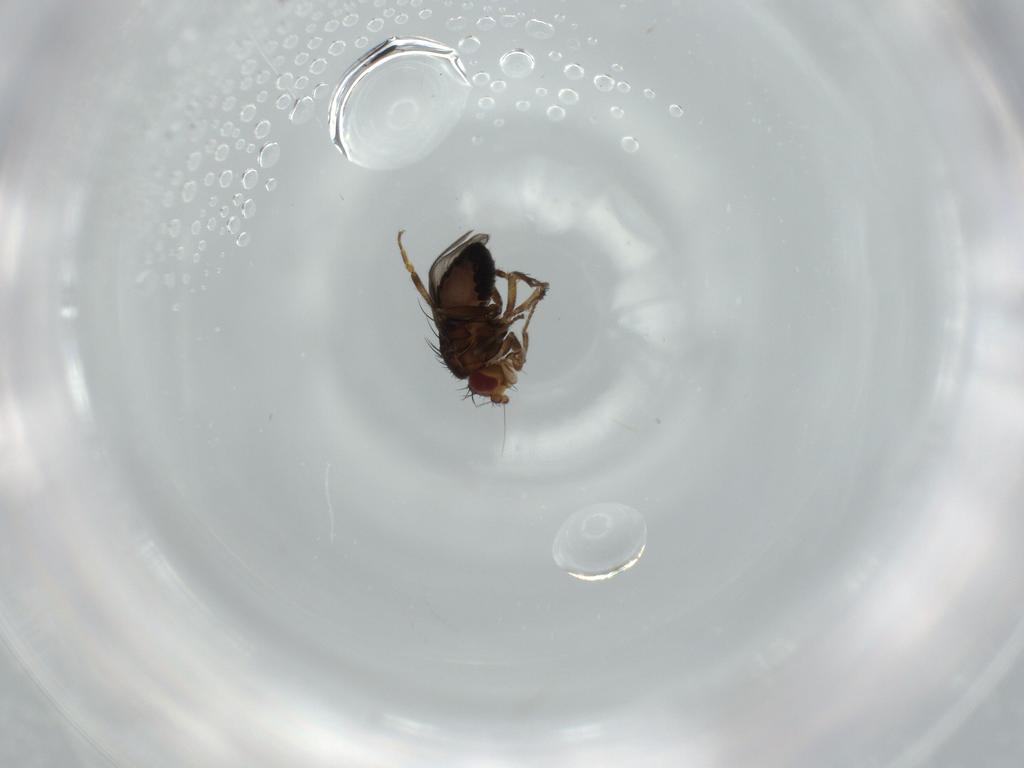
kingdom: Animalia
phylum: Arthropoda
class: Insecta
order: Diptera
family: Sphaeroceridae
